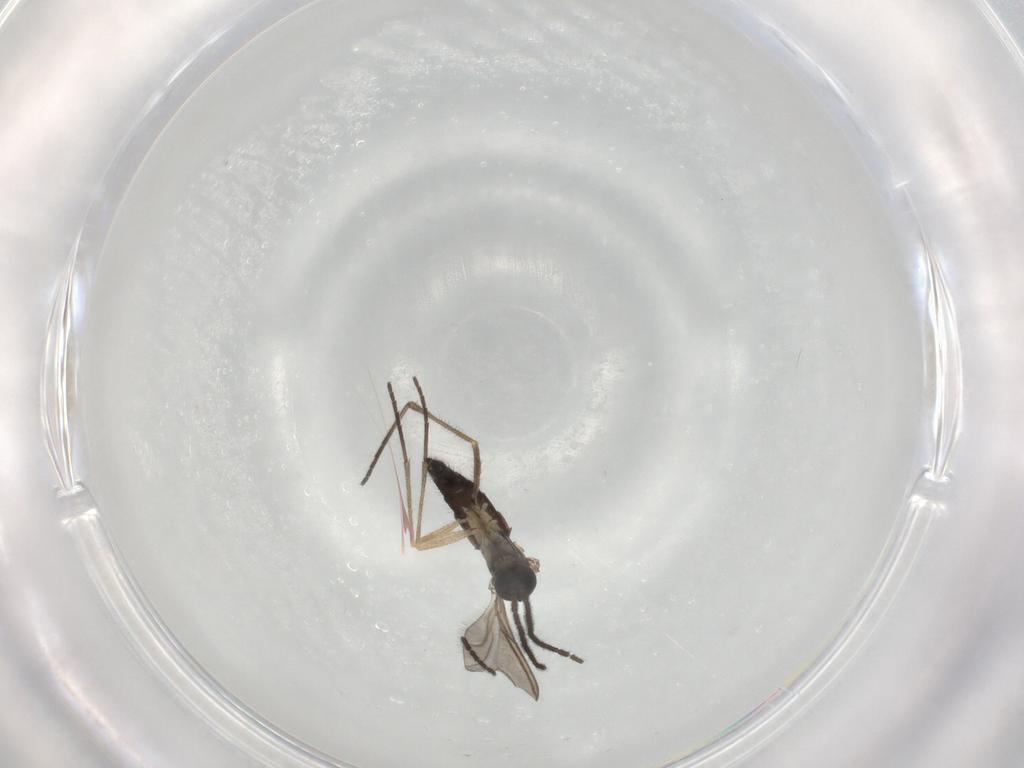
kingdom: Animalia
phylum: Arthropoda
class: Insecta
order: Diptera
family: Sciaridae
